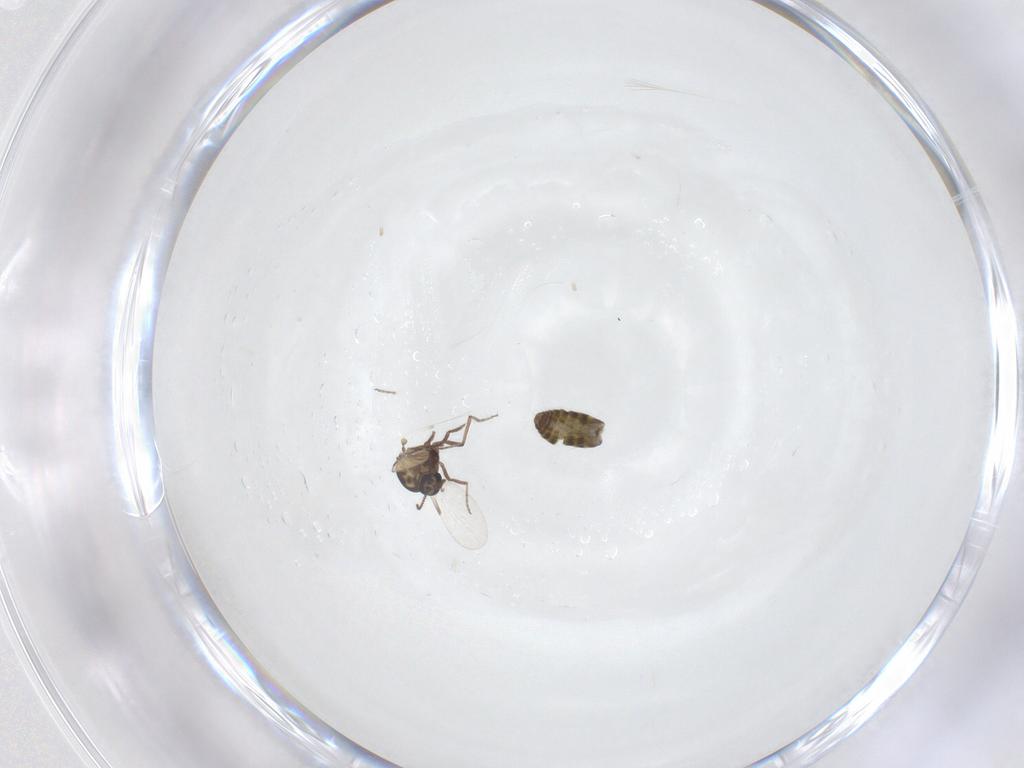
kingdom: Animalia
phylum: Arthropoda
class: Insecta
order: Diptera
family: Ceratopogonidae
